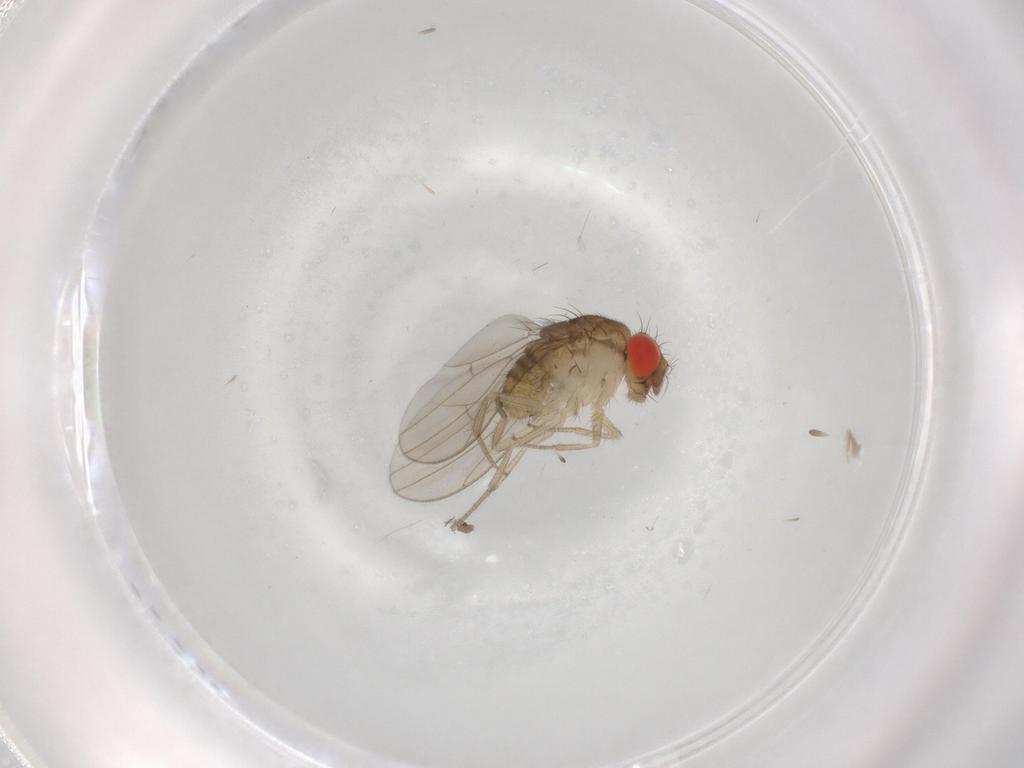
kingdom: Animalia
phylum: Arthropoda
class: Insecta
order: Diptera
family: Drosophilidae
